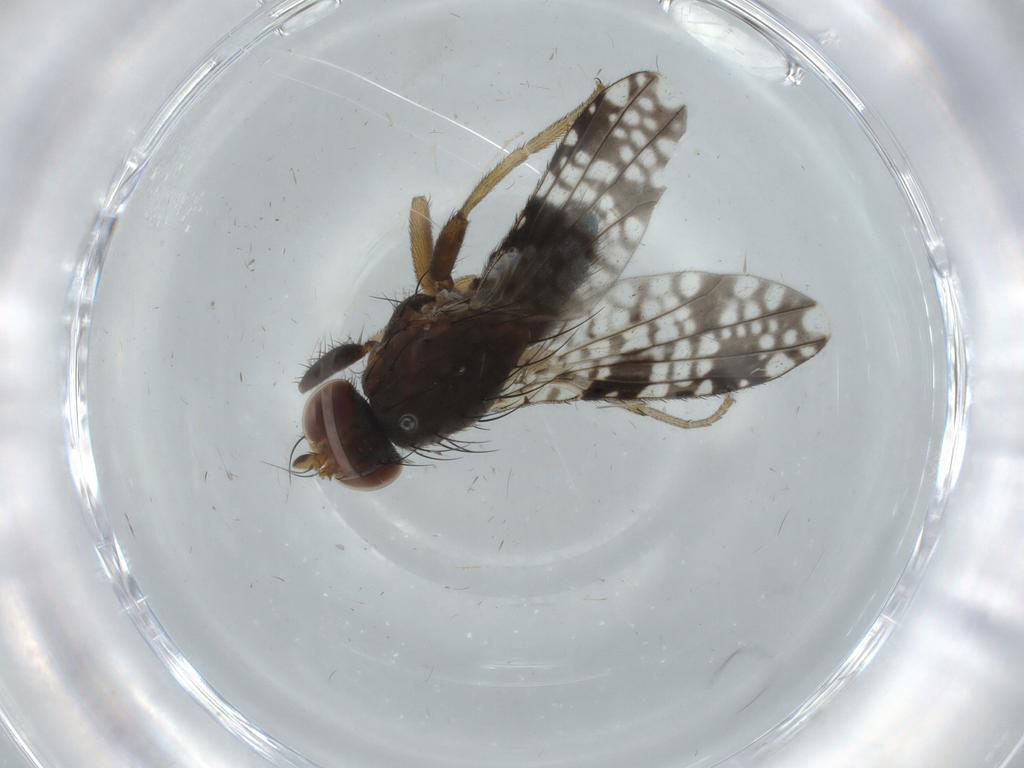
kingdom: Animalia
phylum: Arthropoda
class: Insecta
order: Diptera
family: Tephritidae
